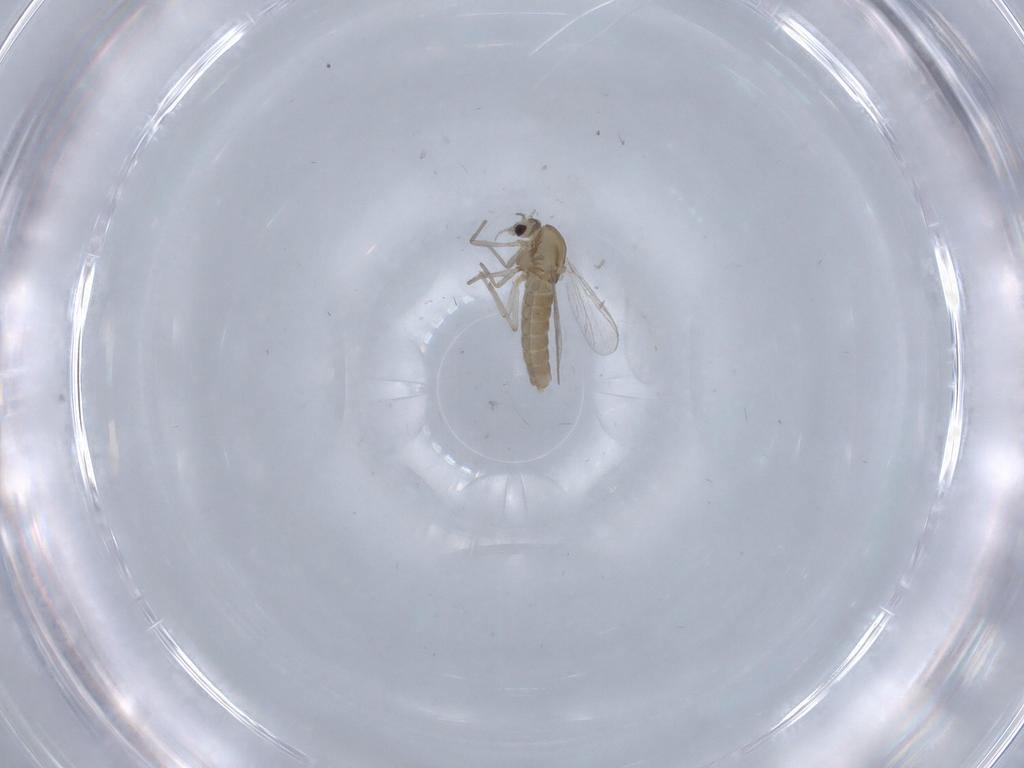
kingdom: Animalia
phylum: Arthropoda
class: Insecta
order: Diptera
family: Chironomidae
